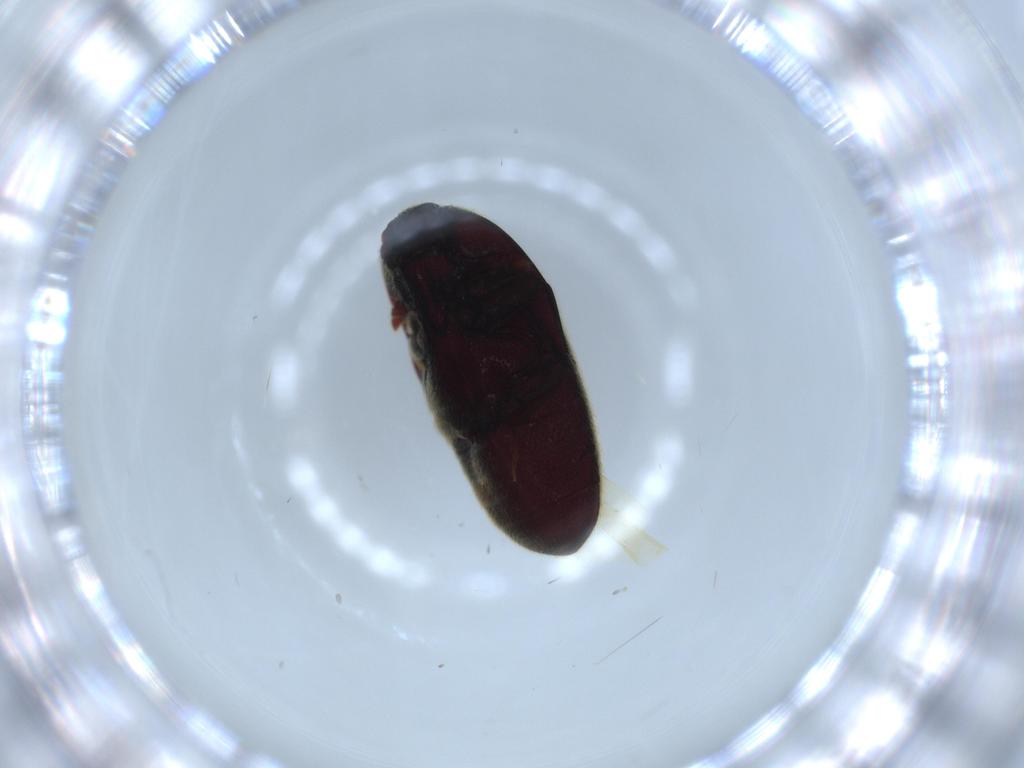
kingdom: Animalia
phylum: Arthropoda
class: Insecta
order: Coleoptera
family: Throscidae
